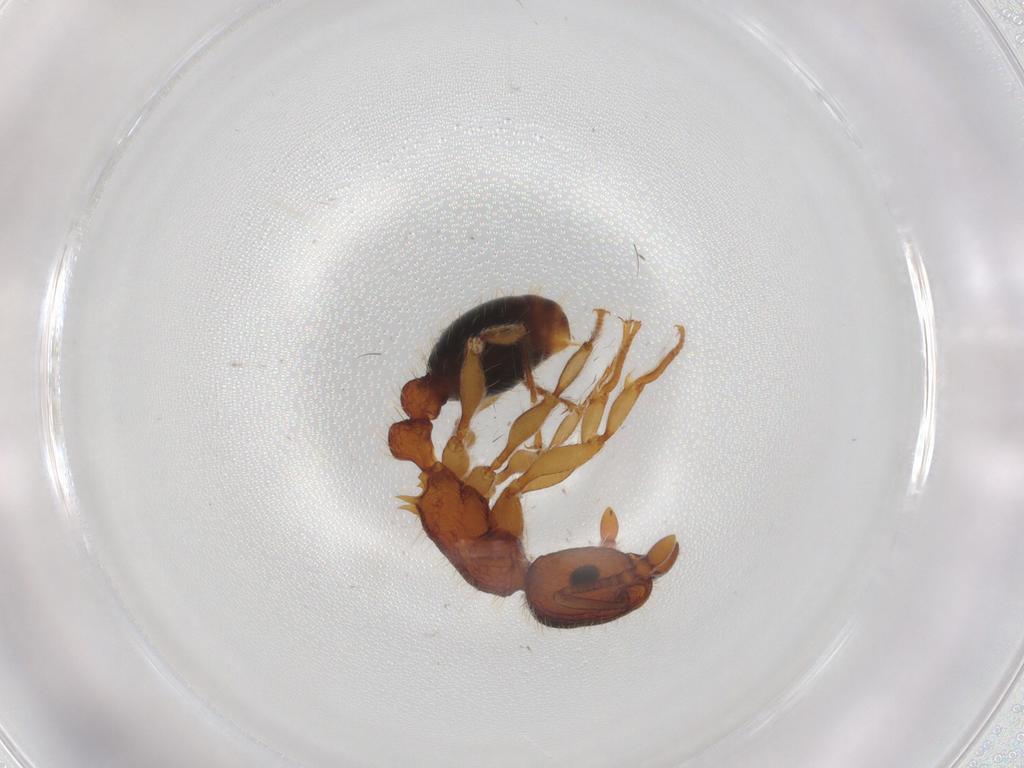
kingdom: Animalia
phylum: Arthropoda
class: Insecta
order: Hymenoptera
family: Formicidae
